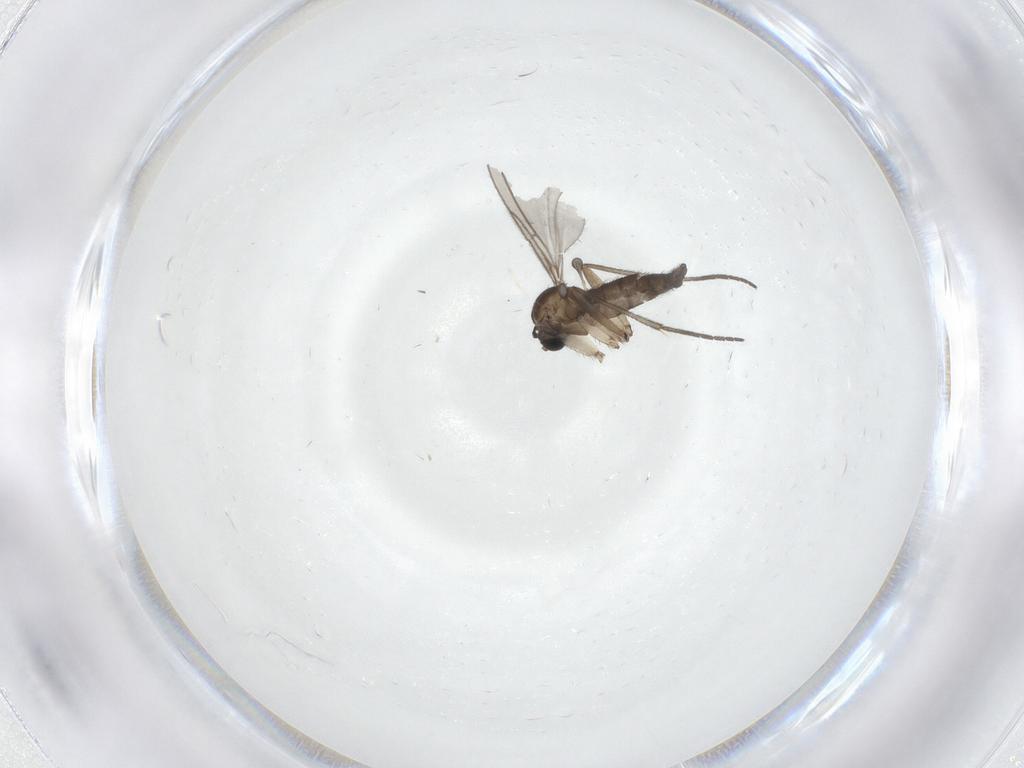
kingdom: Animalia
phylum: Arthropoda
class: Insecta
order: Diptera
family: Sciaridae
